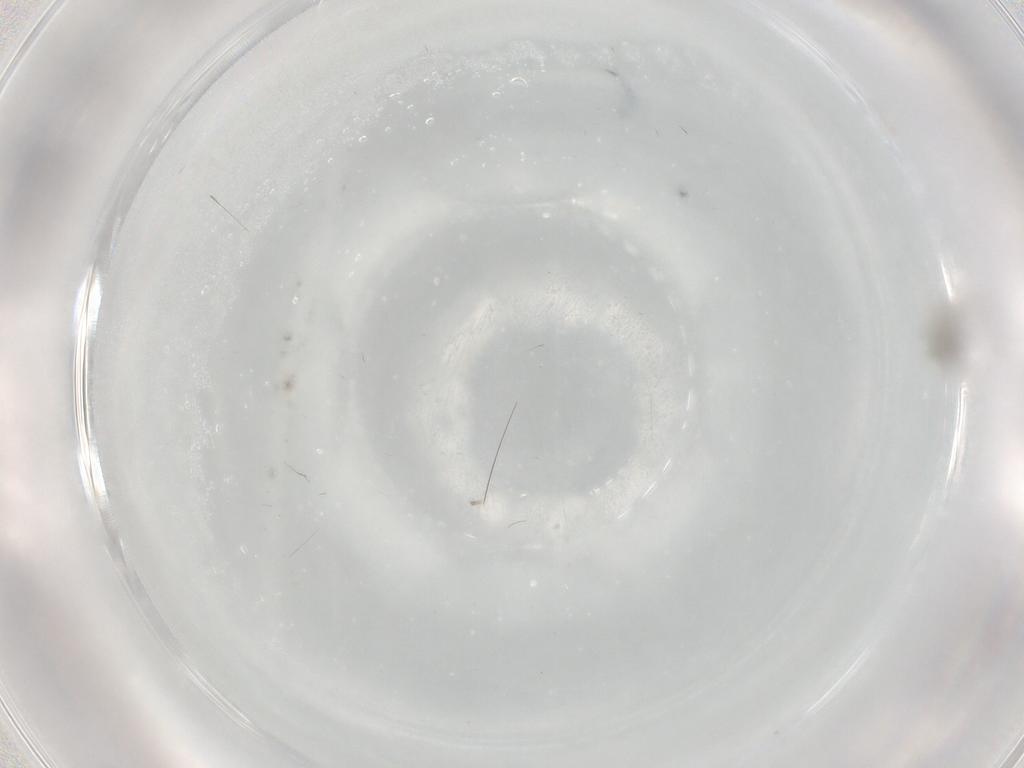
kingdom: Animalia
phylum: Arthropoda
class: Insecta
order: Diptera
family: Cecidomyiidae
